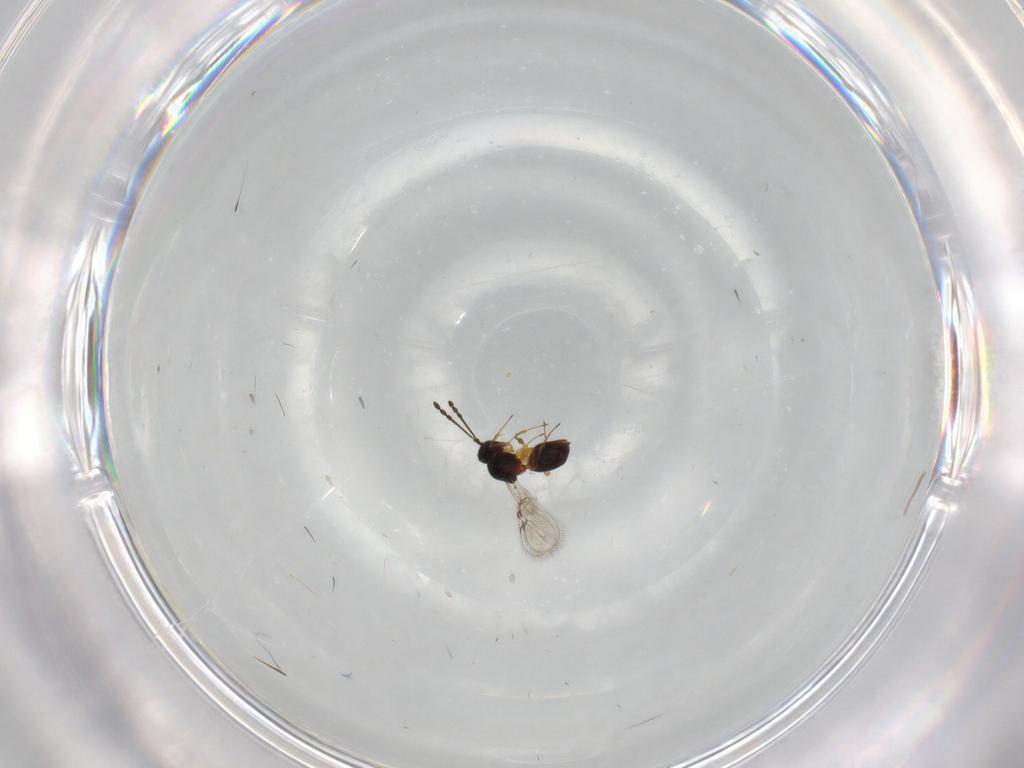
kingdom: Animalia
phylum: Arthropoda
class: Insecta
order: Hymenoptera
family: Figitidae
